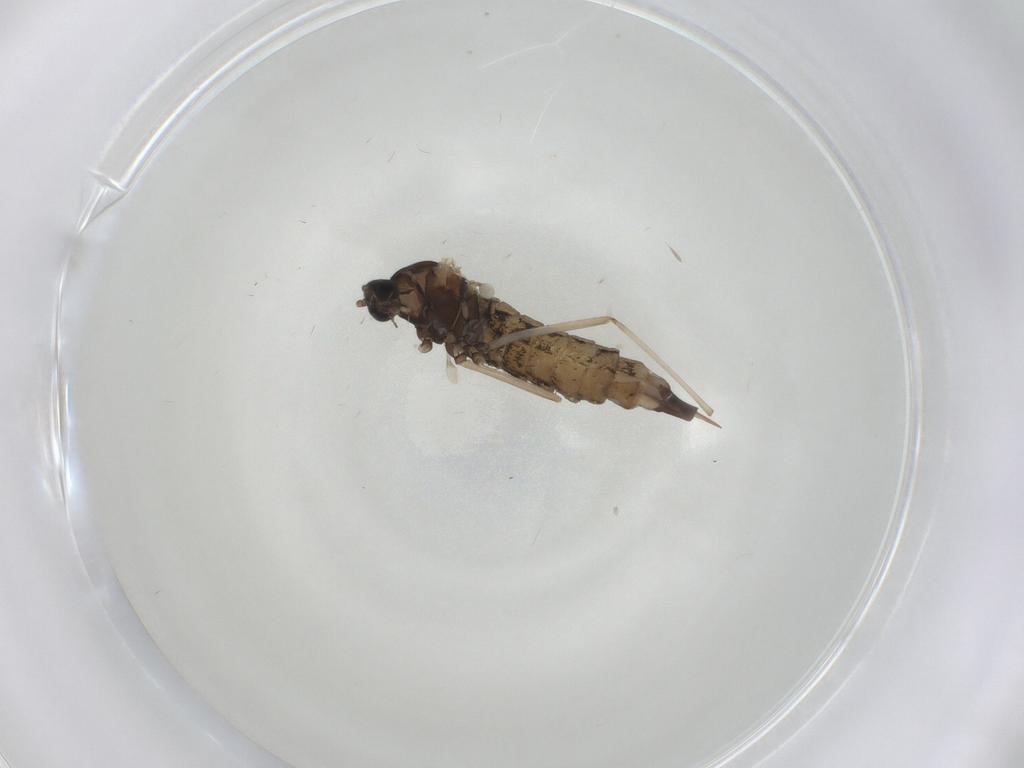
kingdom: Animalia
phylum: Arthropoda
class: Insecta
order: Diptera
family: Cecidomyiidae
